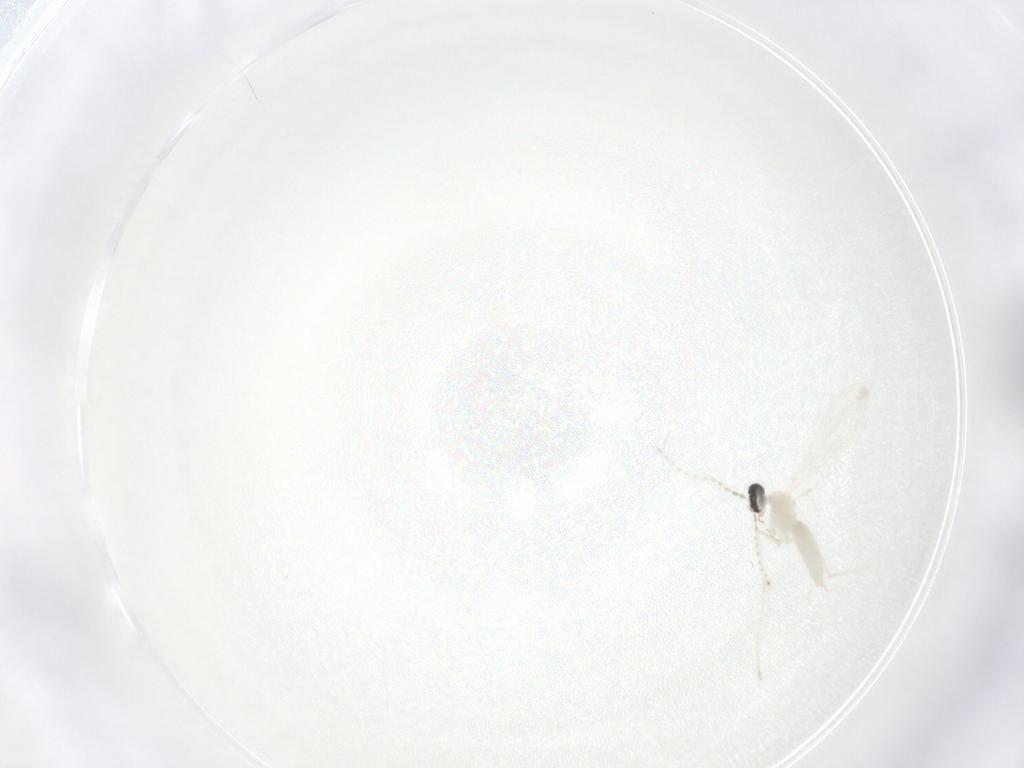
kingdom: Animalia
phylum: Arthropoda
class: Insecta
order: Diptera
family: Cecidomyiidae
